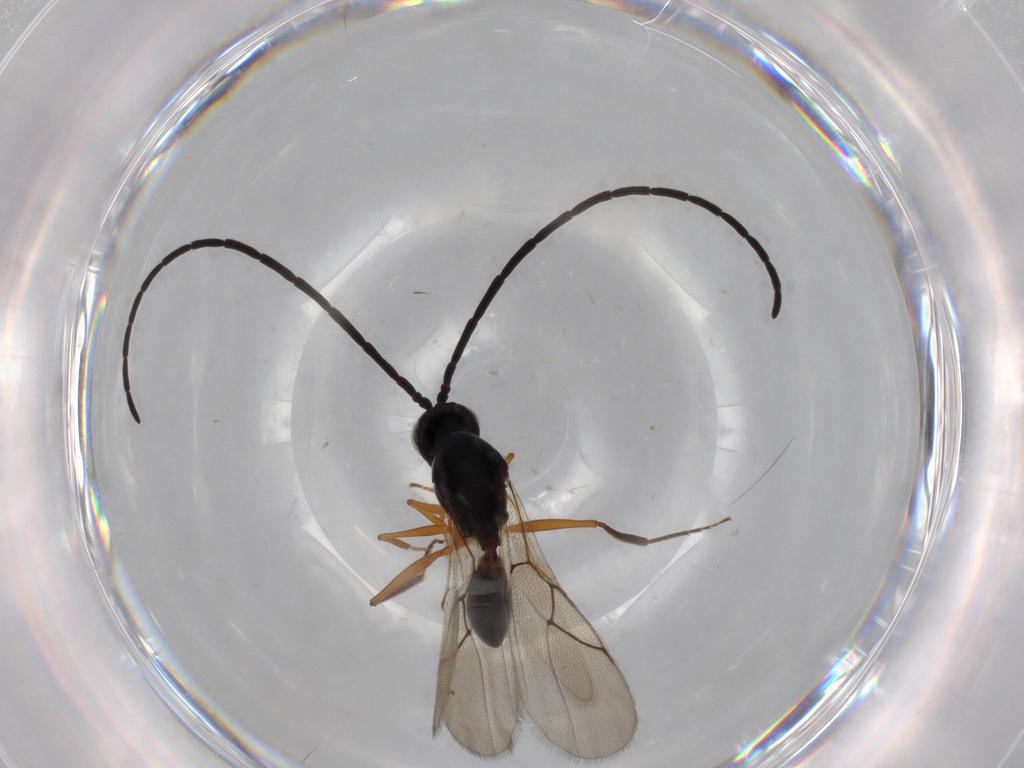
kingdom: Animalia
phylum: Arthropoda
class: Insecta
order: Hymenoptera
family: Figitidae
